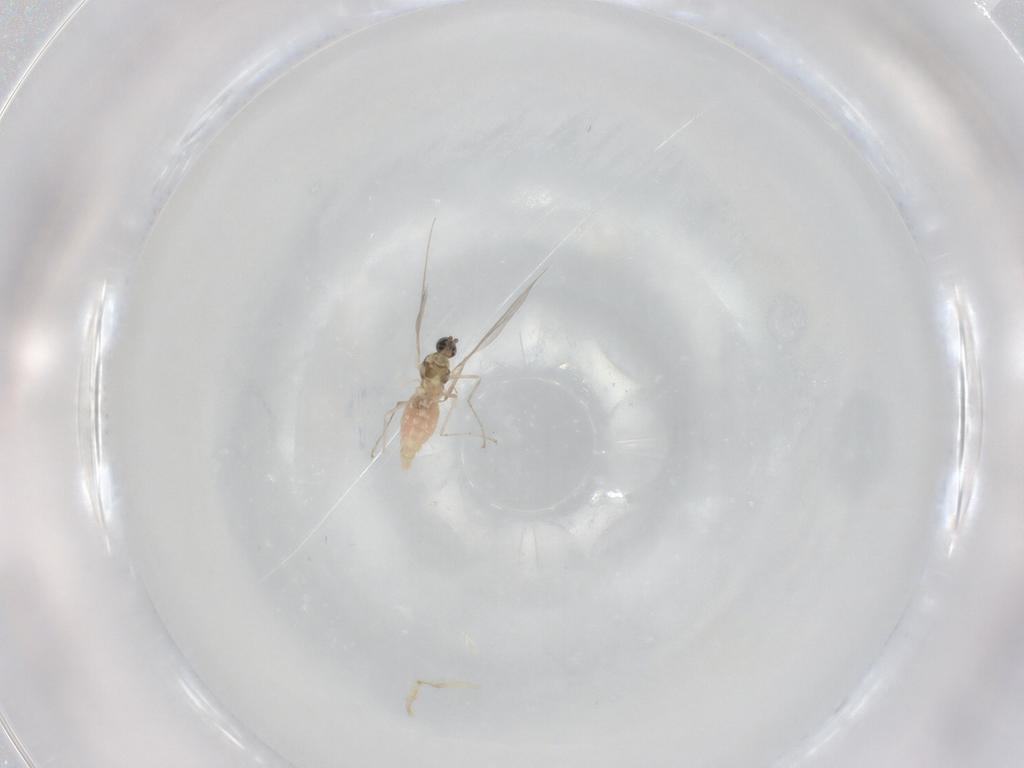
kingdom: Animalia
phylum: Arthropoda
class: Insecta
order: Diptera
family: Cecidomyiidae
